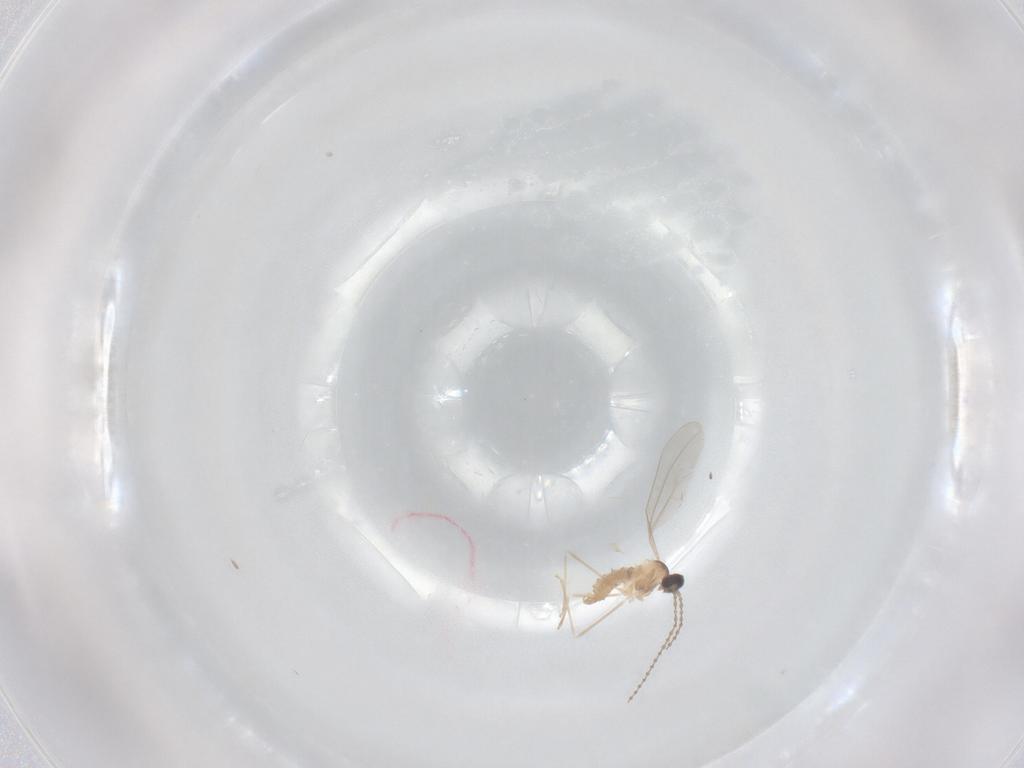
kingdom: Animalia
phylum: Arthropoda
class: Insecta
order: Diptera
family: Cecidomyiidae
